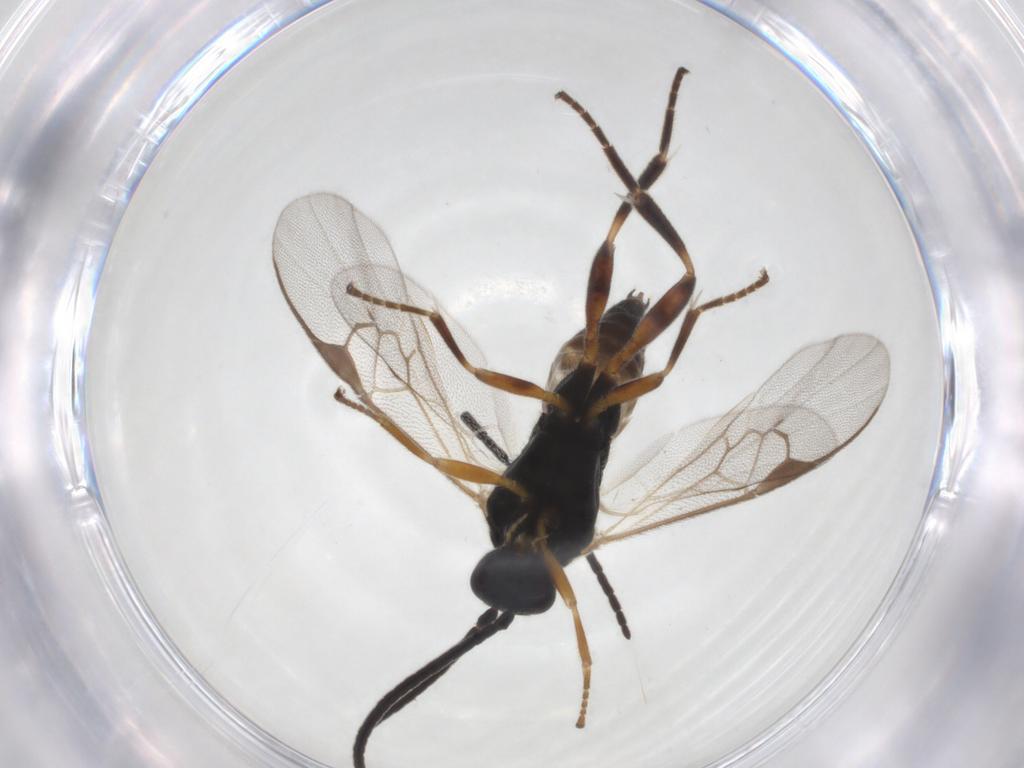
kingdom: Animalia
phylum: Arthropoda
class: Insecta
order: Hymenoptera
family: Braconidae
